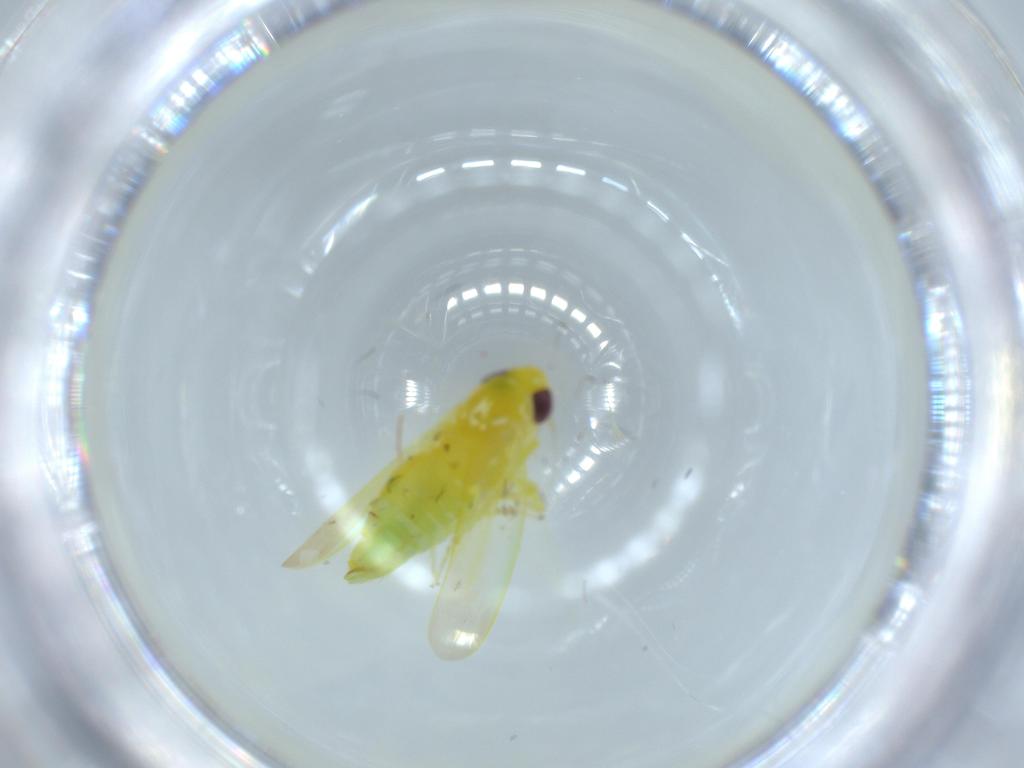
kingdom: Animalia
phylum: Arthropoda
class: Insecta
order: Hemiptera
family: Cicadellidae
